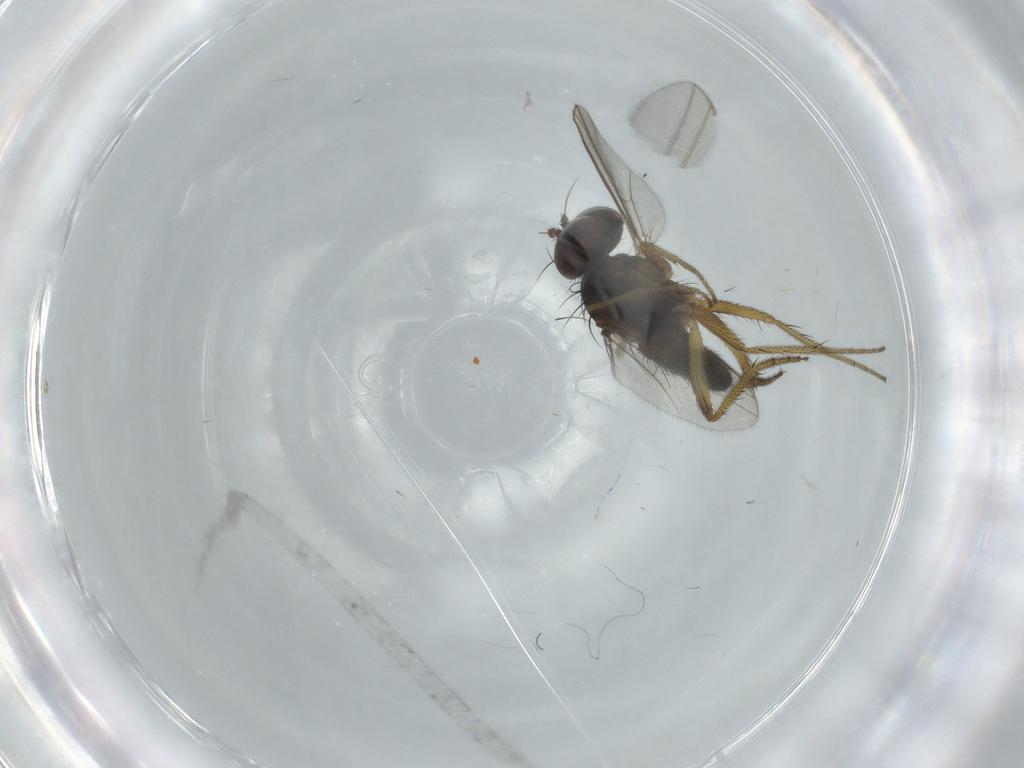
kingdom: Animalia
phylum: Arthropoda
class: Insecta
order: Diptera
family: Dolichopodidae
